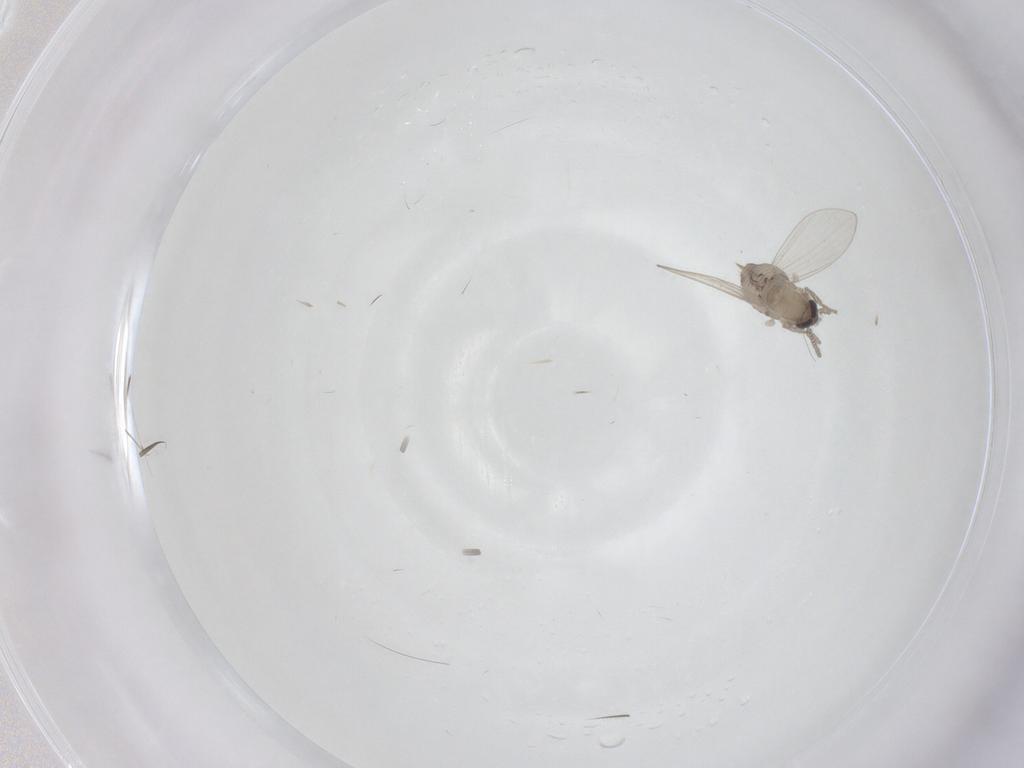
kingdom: Animalia
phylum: Arthropoda
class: Insecta
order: Diptera
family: Psychodidae
